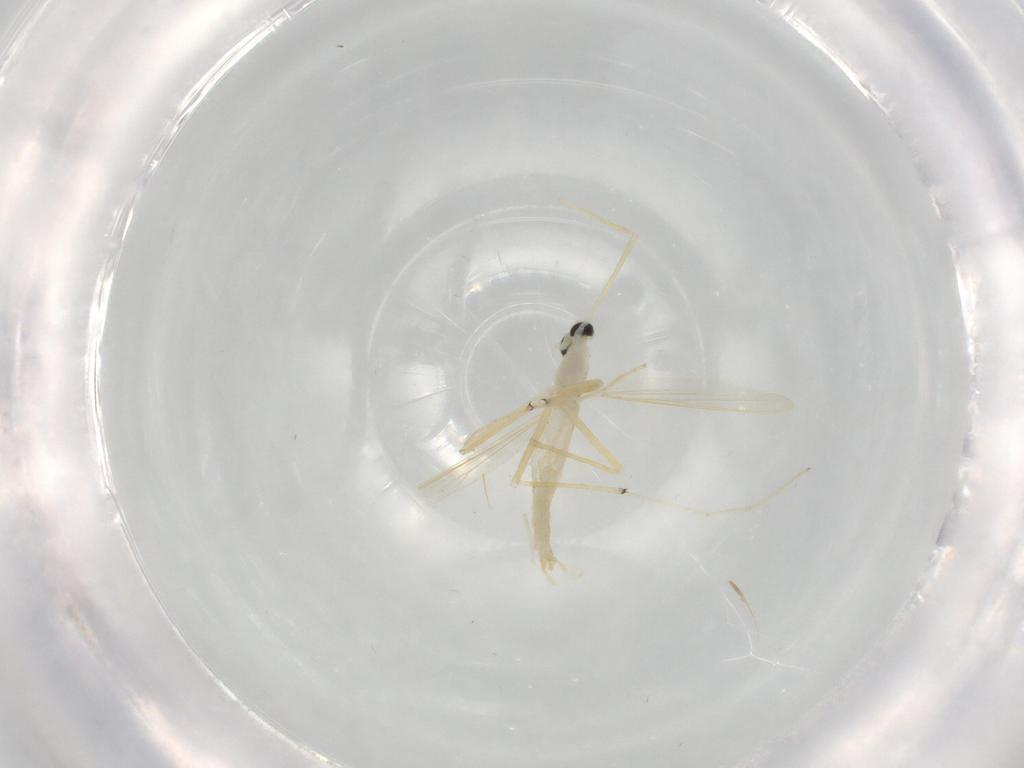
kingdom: Animalia
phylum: Arthropoda
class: Insecta
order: Diptera
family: Chironomidae
